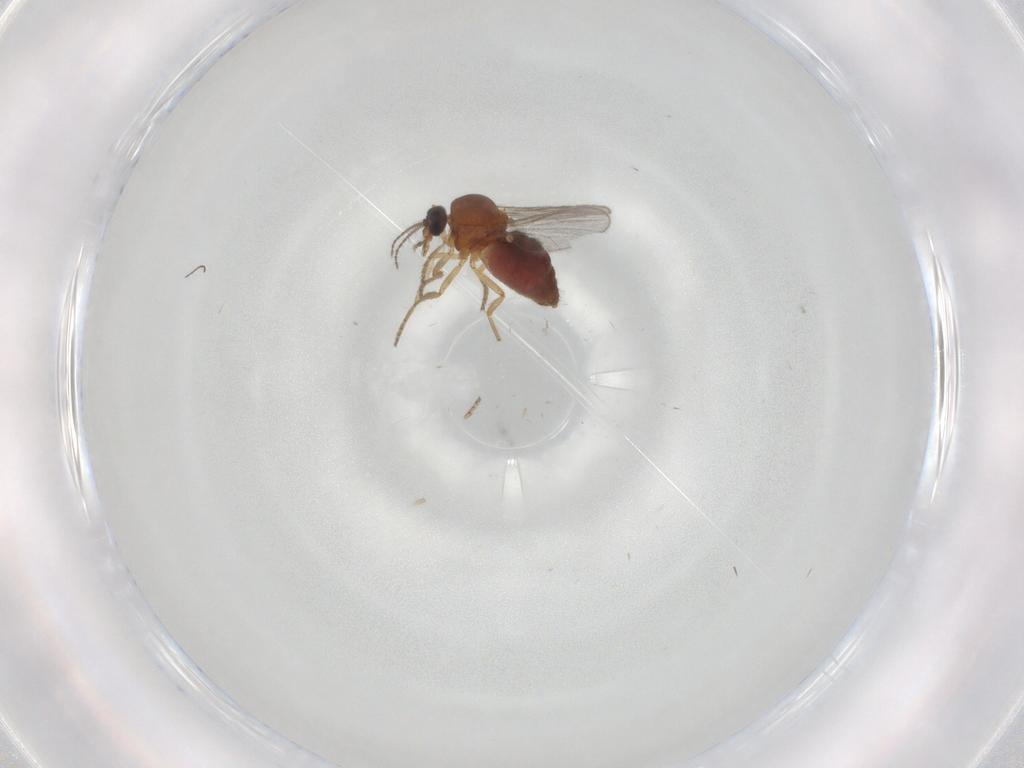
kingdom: Animalia
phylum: Arthropoda
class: Insecta
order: Diptera
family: Ceratopogonidae
